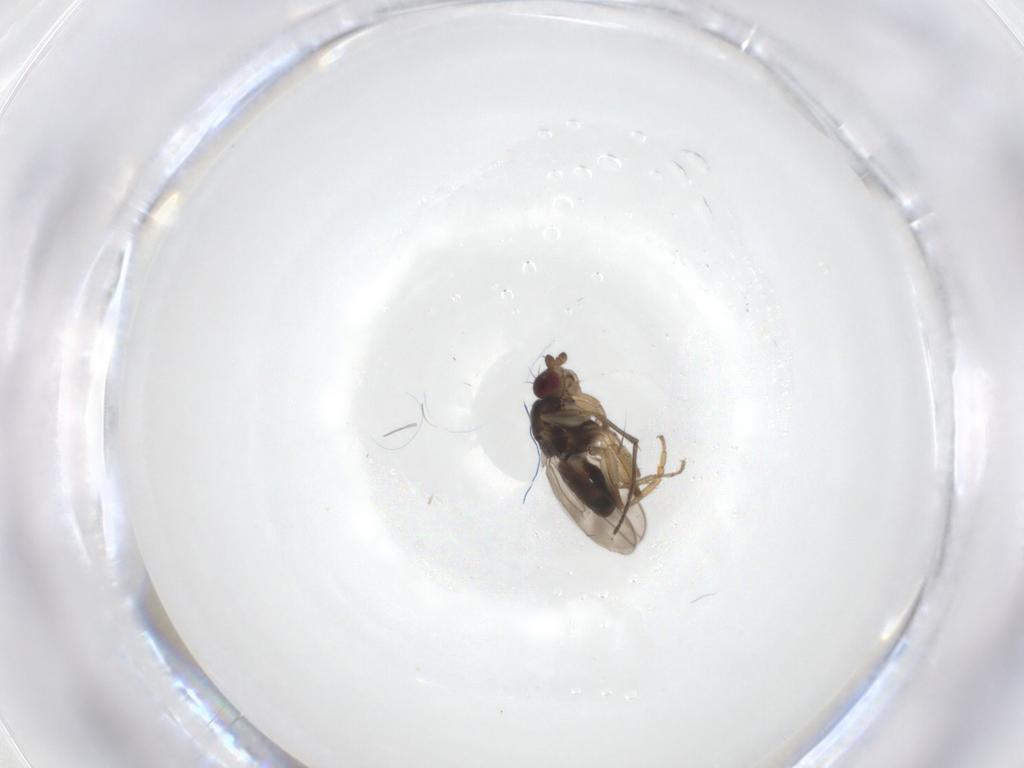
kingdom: Animalia
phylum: Arthropoda
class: Insecta
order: Diptera
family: Sphaeroceridae
